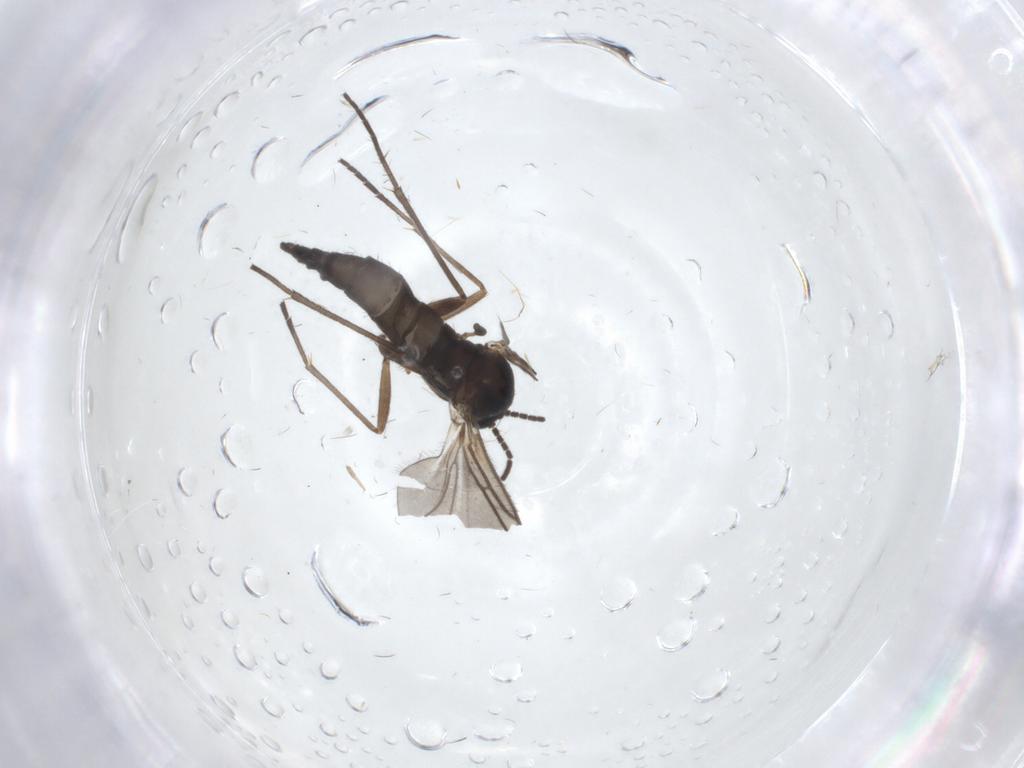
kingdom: Animalia
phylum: Arthropoda
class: Insecta
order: Diptera
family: Sciaridae
